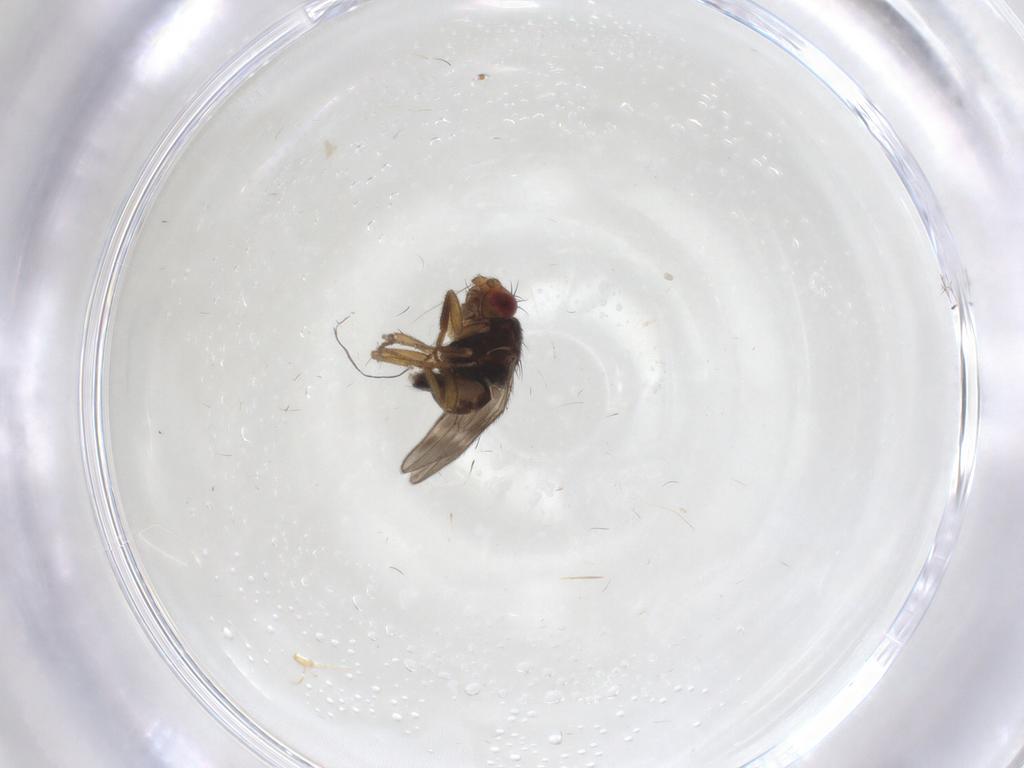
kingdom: Animalia
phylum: Arthropoda
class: Insecta
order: Diptera
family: Sphaeroceridae
